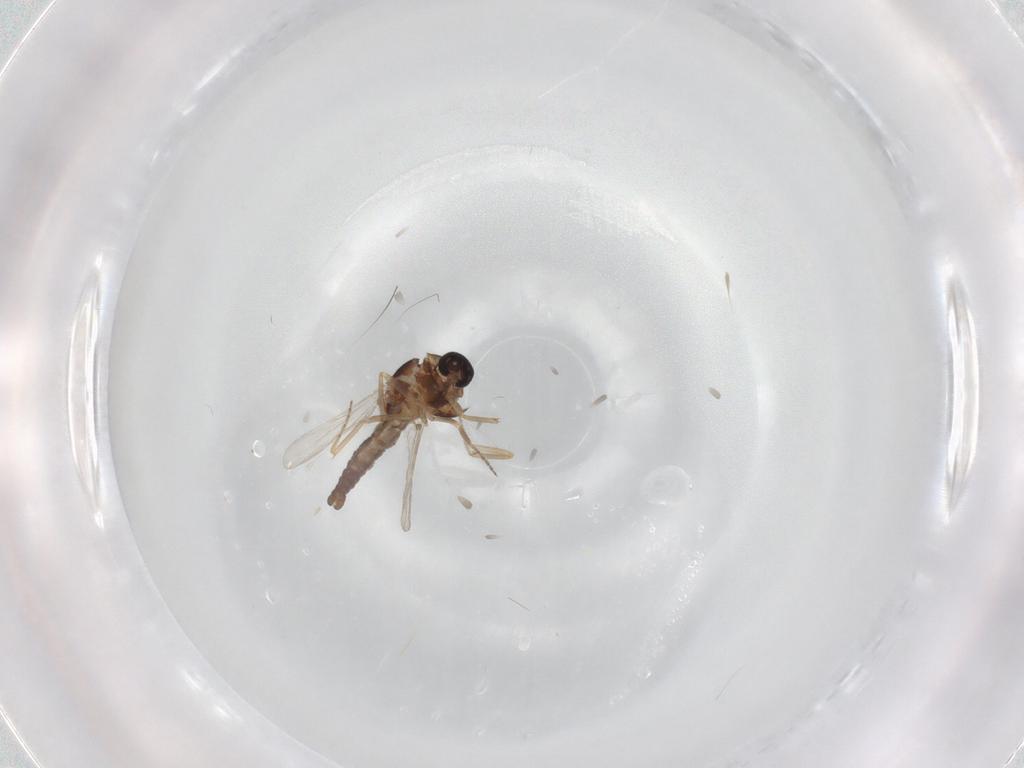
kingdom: Animalia
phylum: Arthropoda
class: Insecta
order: Diptera
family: Ceratopogonidae
